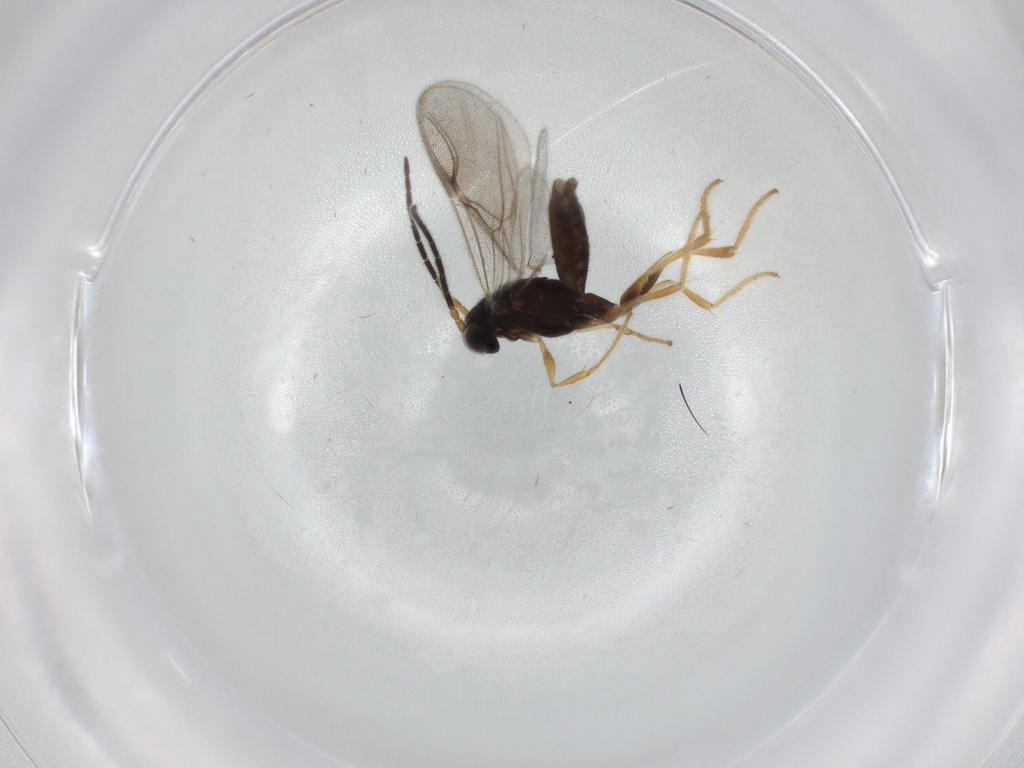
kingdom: Animalia
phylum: Arthropoda
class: Insecta
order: Hymenoptera
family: Dryinidae
